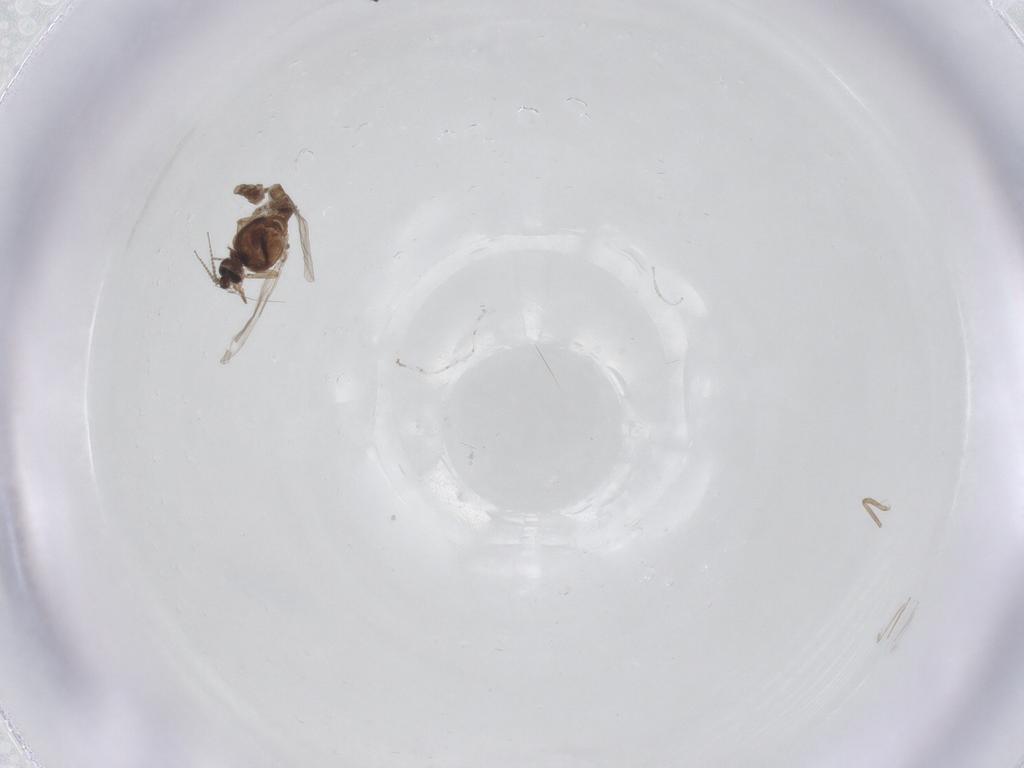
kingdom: Animalia
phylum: Arthropoda
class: Insecta
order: Diptera
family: Ceratopogonidae
